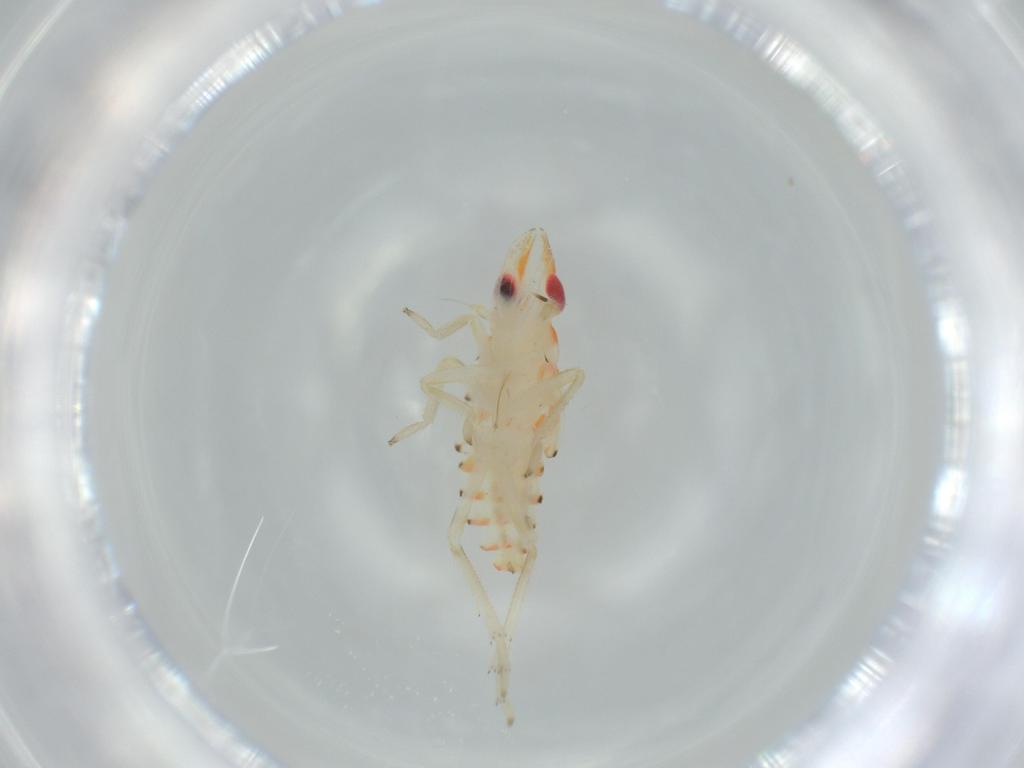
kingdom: Animalia
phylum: Arthropoda
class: Insecta
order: Hemiptera
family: Tropiduchidae
